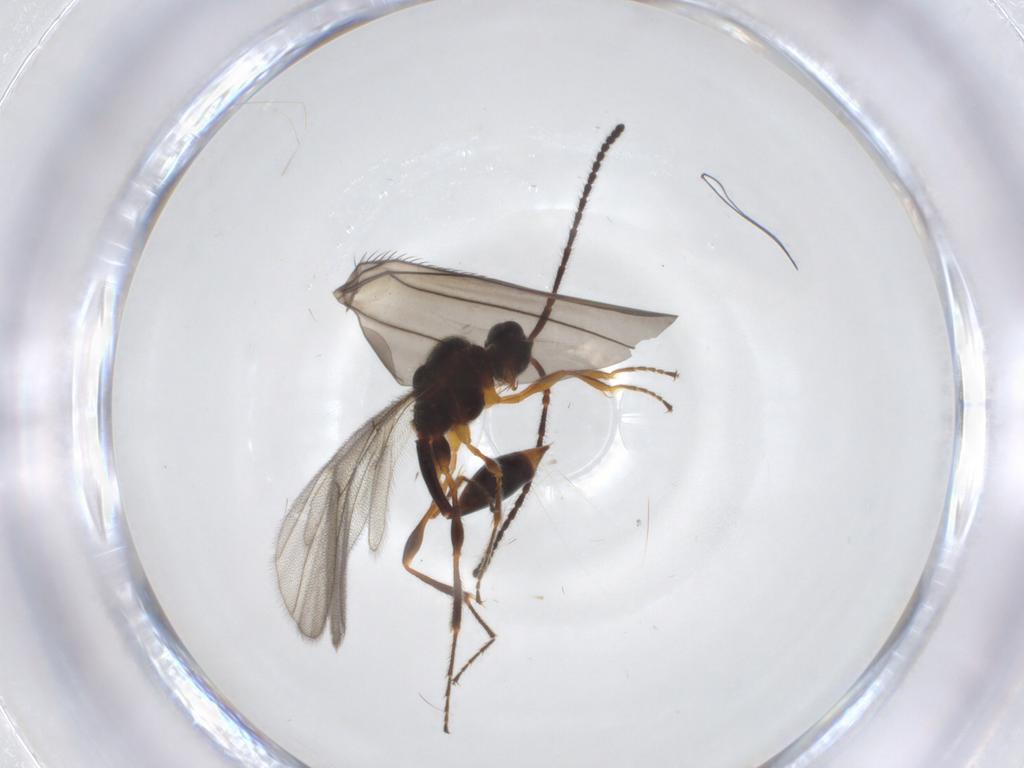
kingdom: Animalia
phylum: Arthropoda
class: Insecta
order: Hymenoptera
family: Diapriidae
